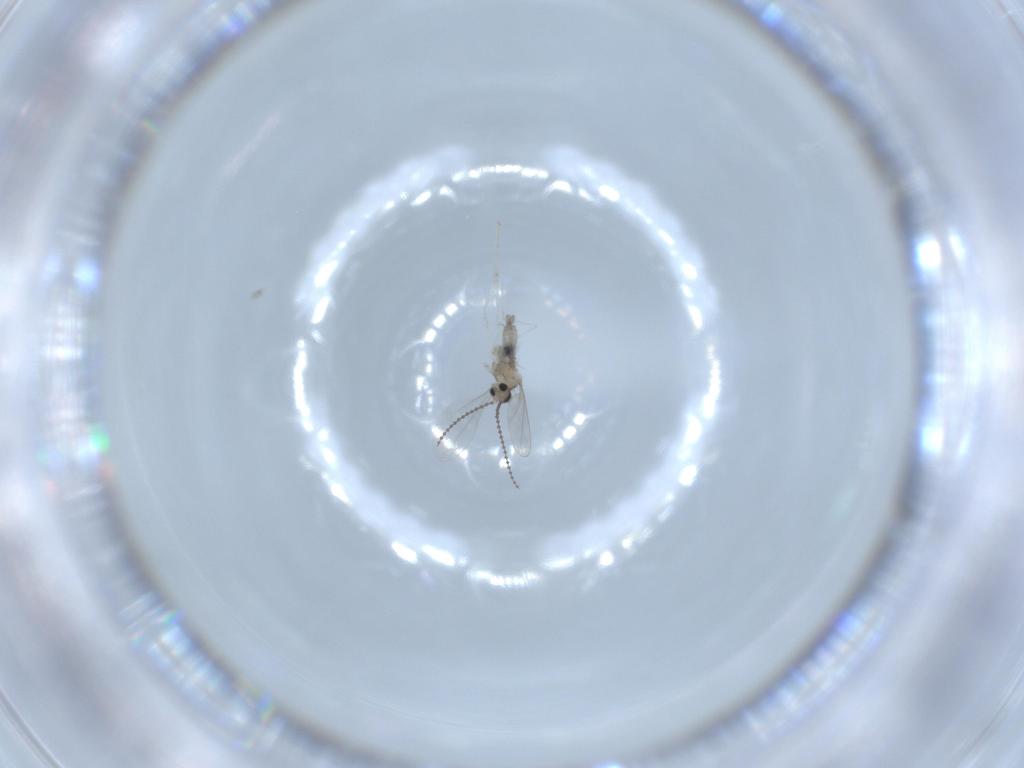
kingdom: Animalia
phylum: Arthropoda
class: Insecta
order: Diptera
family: Cecidomyiidae
